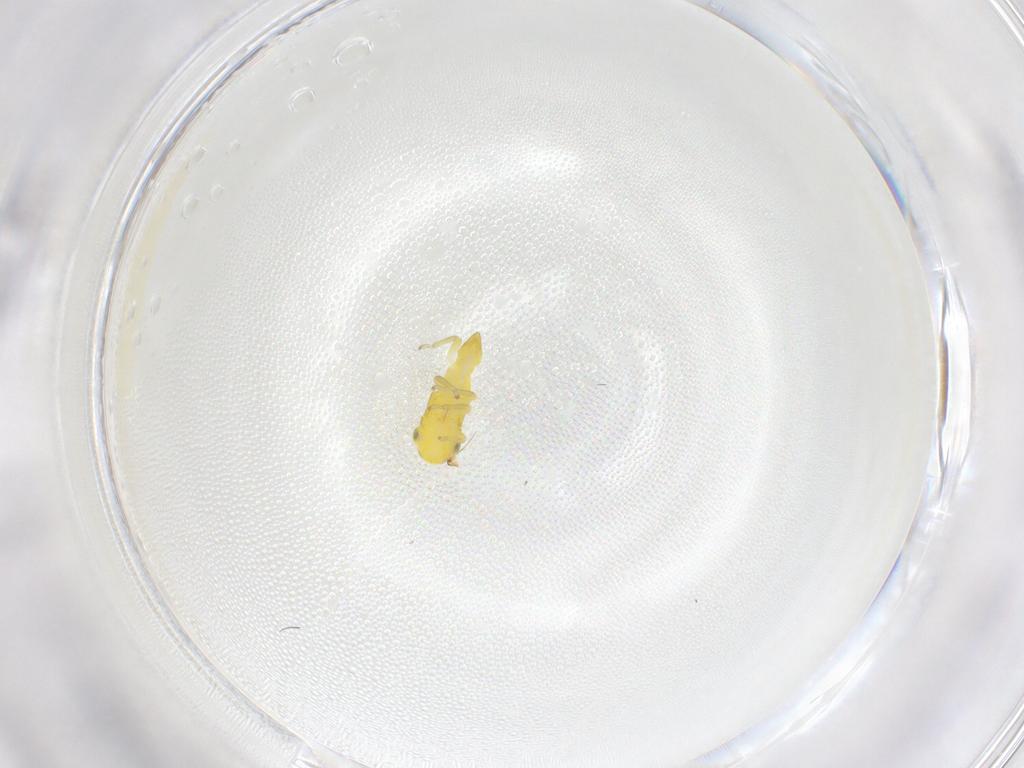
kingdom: Animalia
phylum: Arthropoda
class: Insecta
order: Hemiptera
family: Cicadellidae
